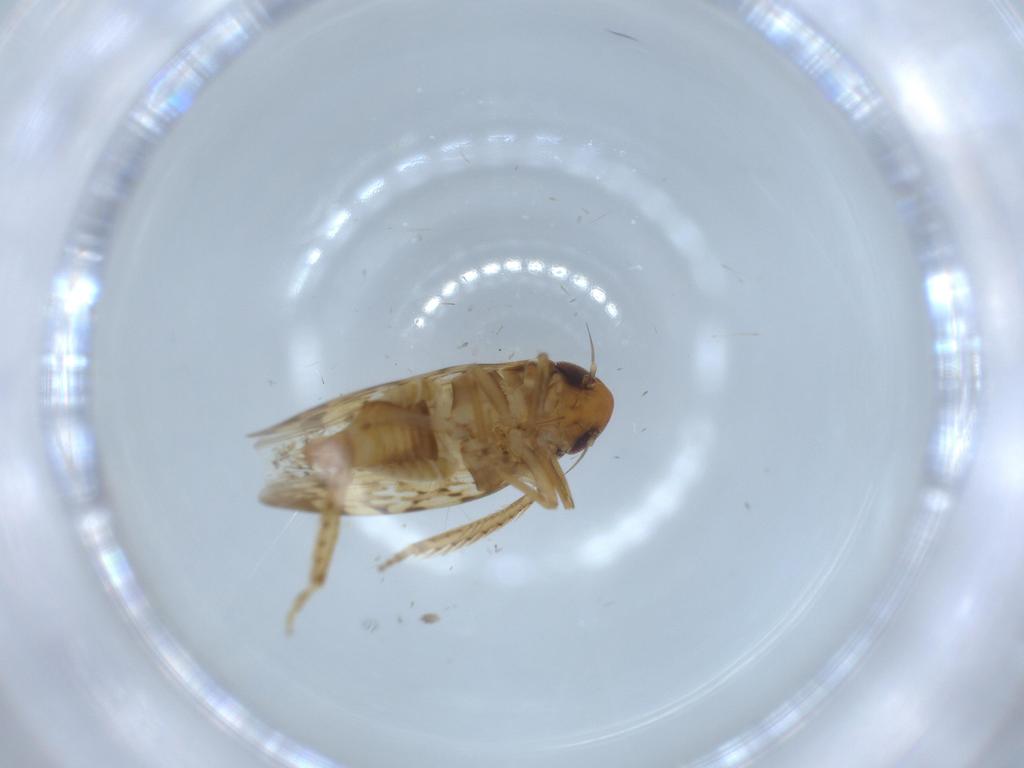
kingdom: Animalia
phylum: Arthropoda
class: Insecta
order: Hemiptera
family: Cicadellidae
